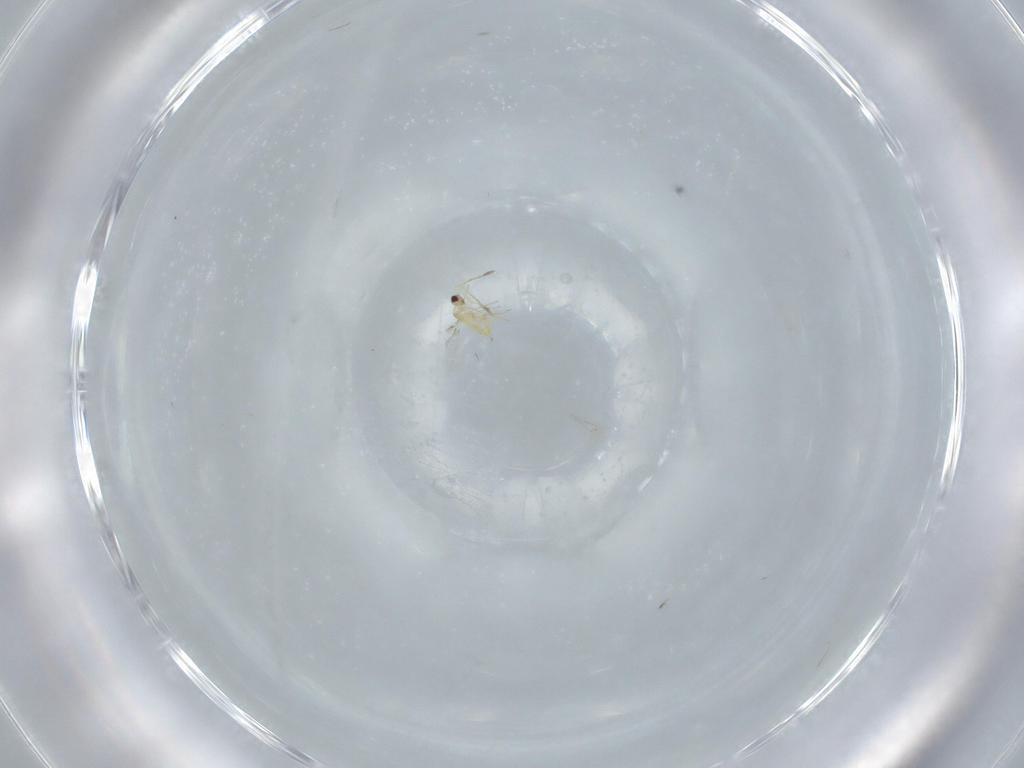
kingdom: Animalia
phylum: Arthropoda
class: Insecta
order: Hymenoptera
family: Mymaridae
